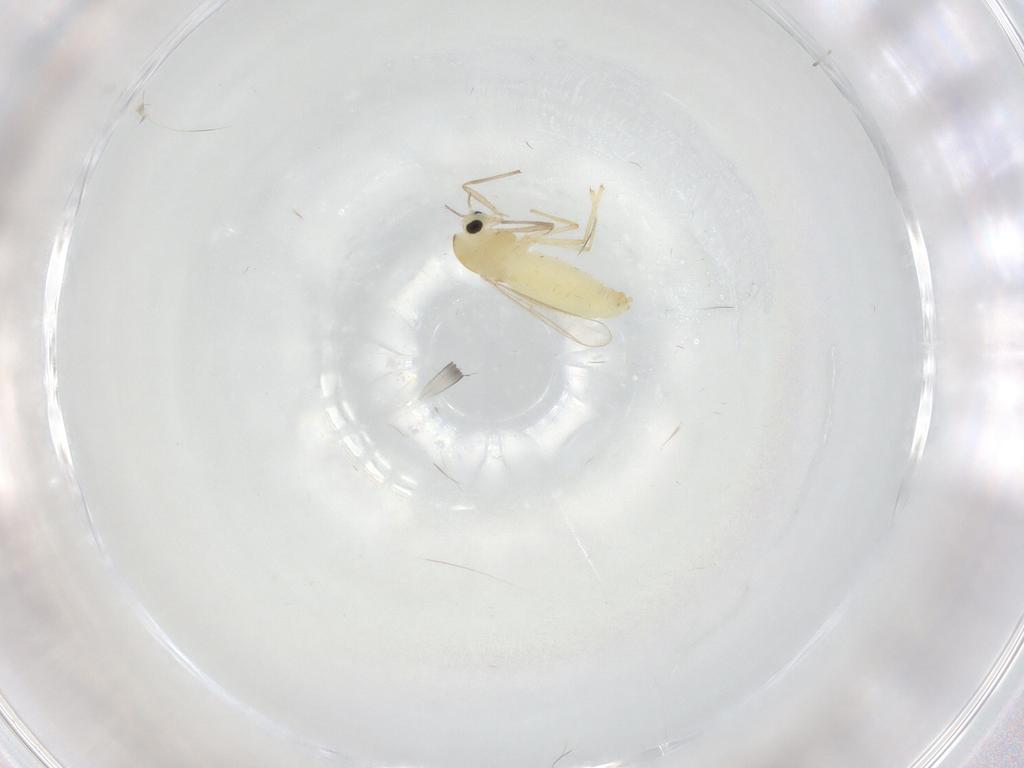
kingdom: Animalia
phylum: Arthropoda
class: Insecta
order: Diptera
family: Chironomidae
